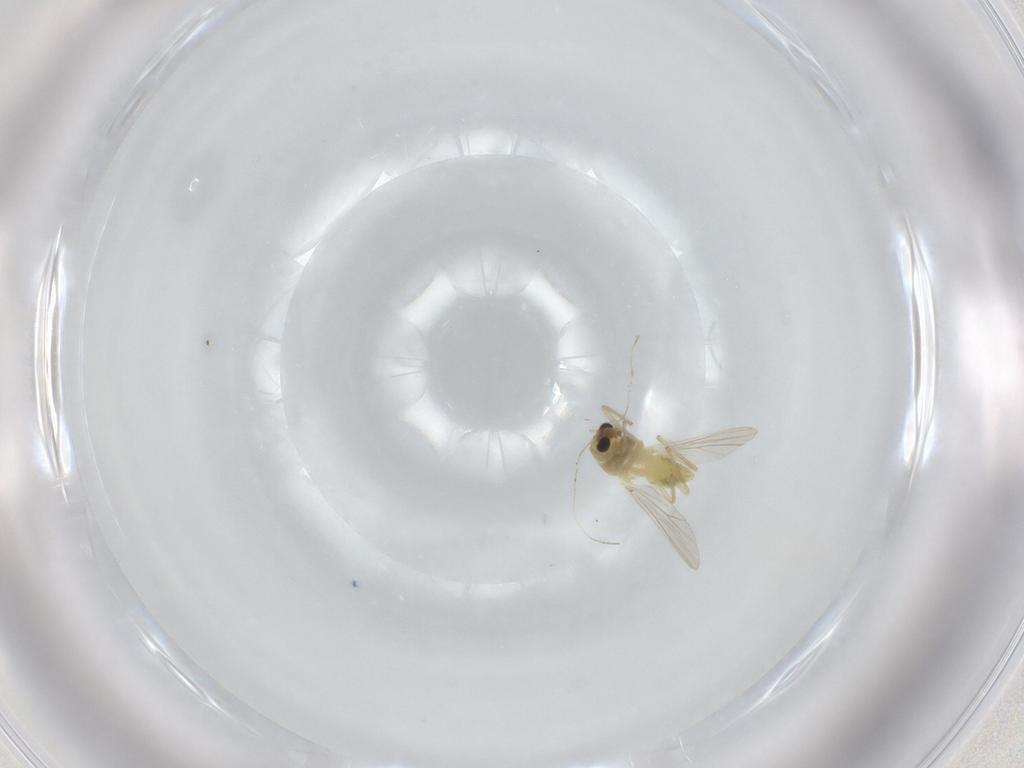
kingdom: Animalia
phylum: Arthropoda
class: Insecta
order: Diptera
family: Chironomidae
